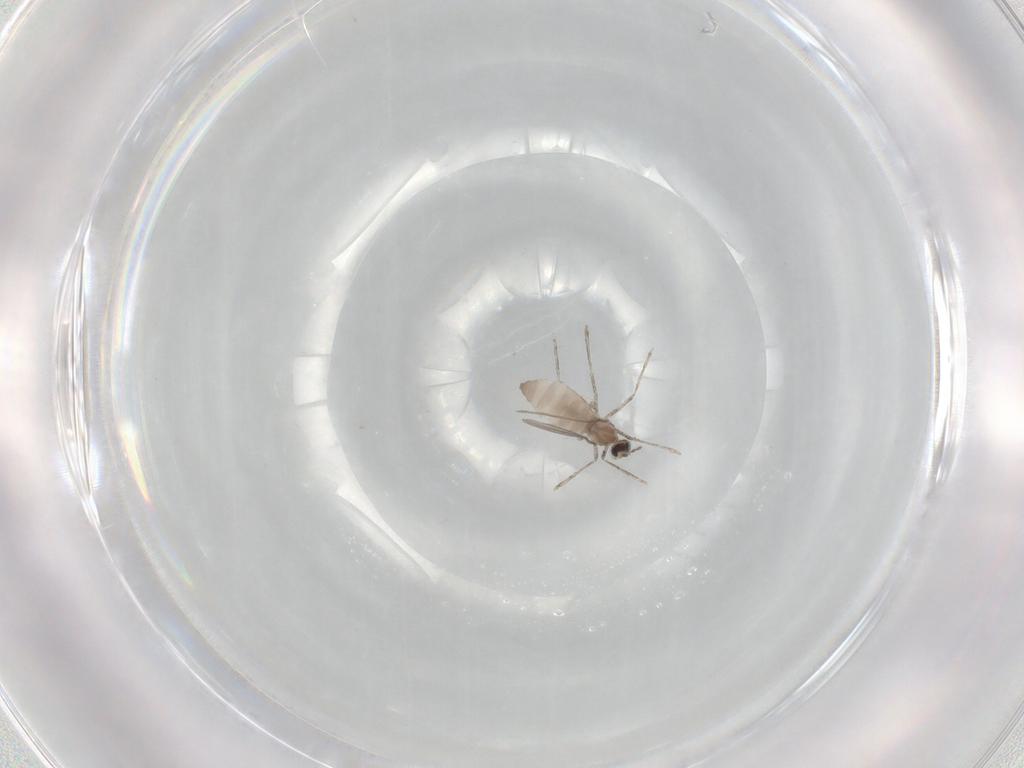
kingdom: Animalia
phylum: Arthropoda
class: Insecta
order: Diptera
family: Cecidomyiidae
